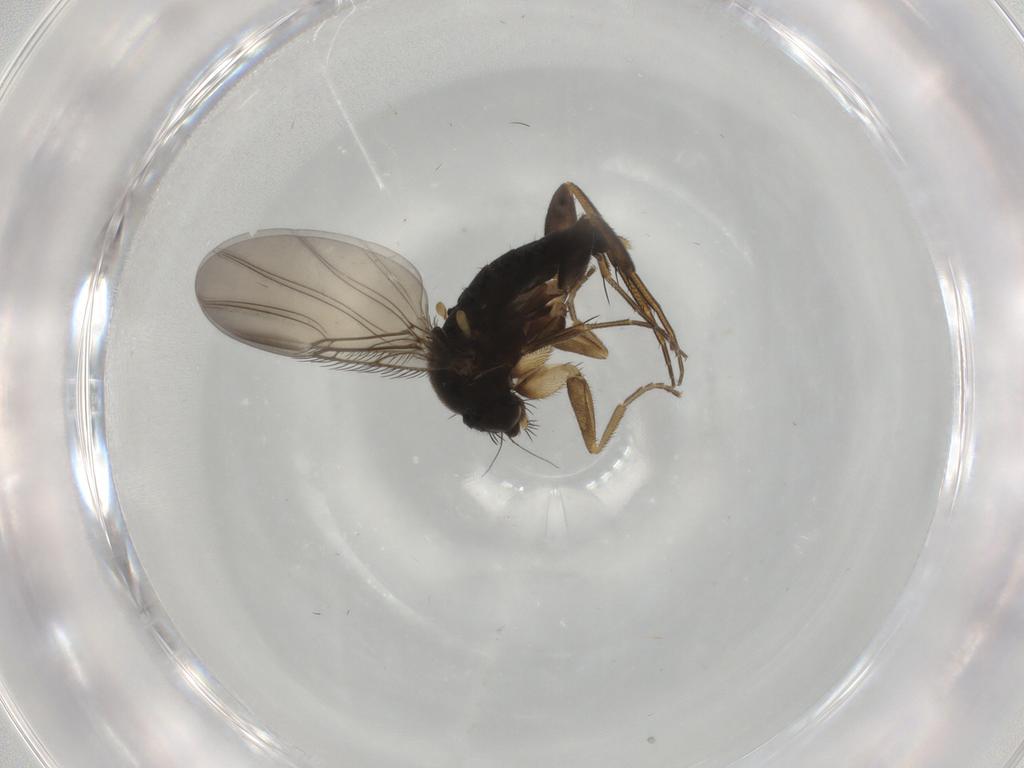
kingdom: Animalia
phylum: Arthropoda
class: Insecta
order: Diptera
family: Phoridae
